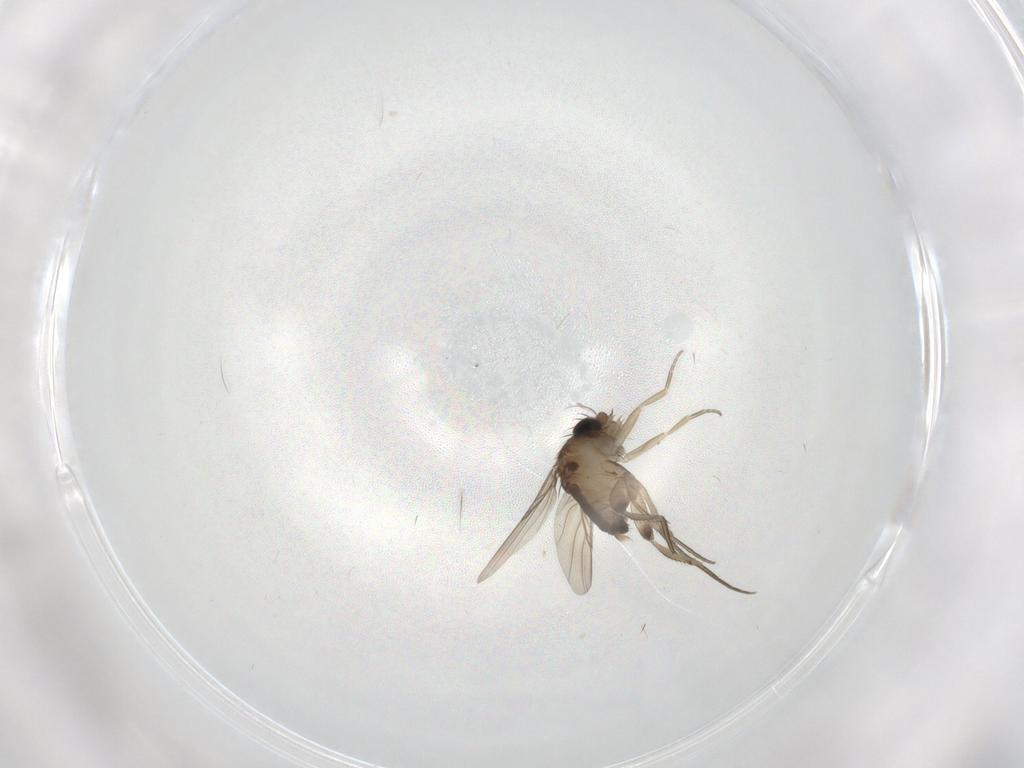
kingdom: Animalia
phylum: Arthropoda
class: Insecta
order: Diptera
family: Phoridae
